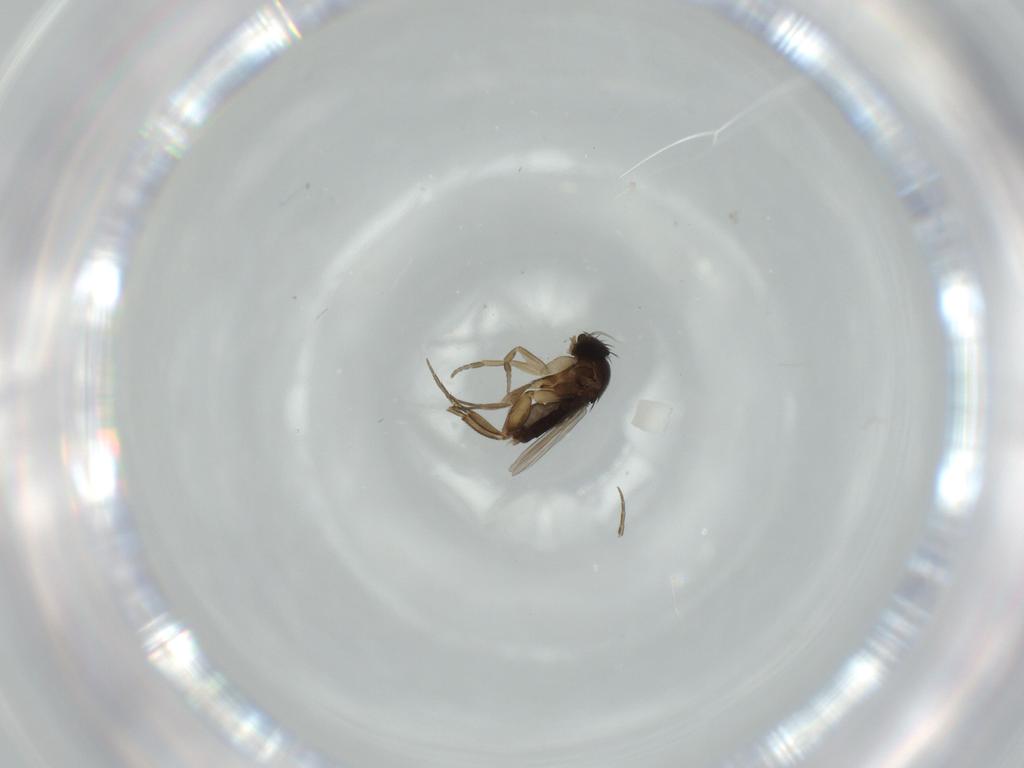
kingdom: Animalia
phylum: Arthropoda
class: Insecta
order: Diptera
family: Phoridae
